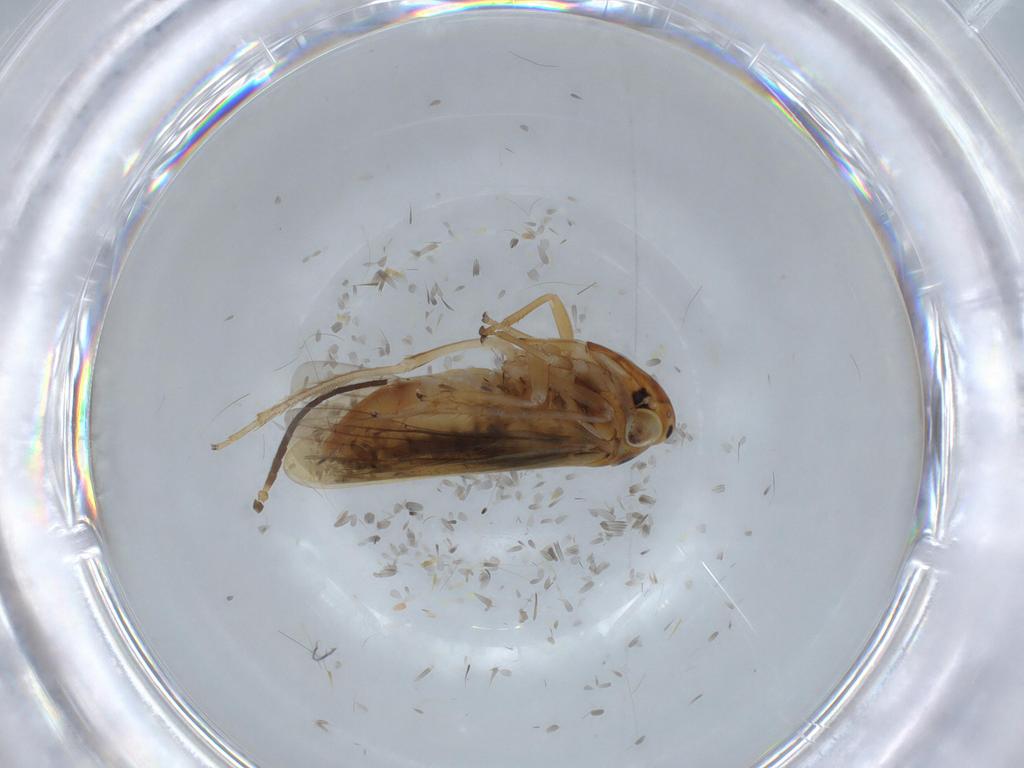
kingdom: Animalia
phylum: Arthropoda
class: Insecta
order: Hemiptera
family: Cicadellidae
